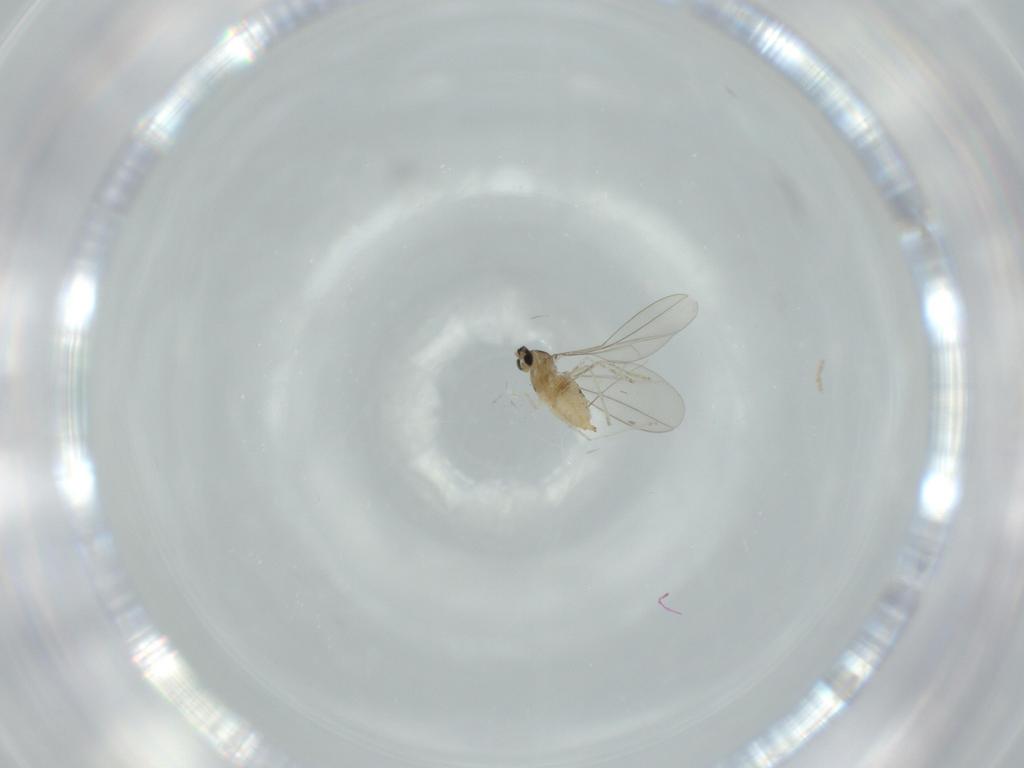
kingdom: Animalia
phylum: Arthropoda
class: Insecta
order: Diptera
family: Cecidomyiidae
